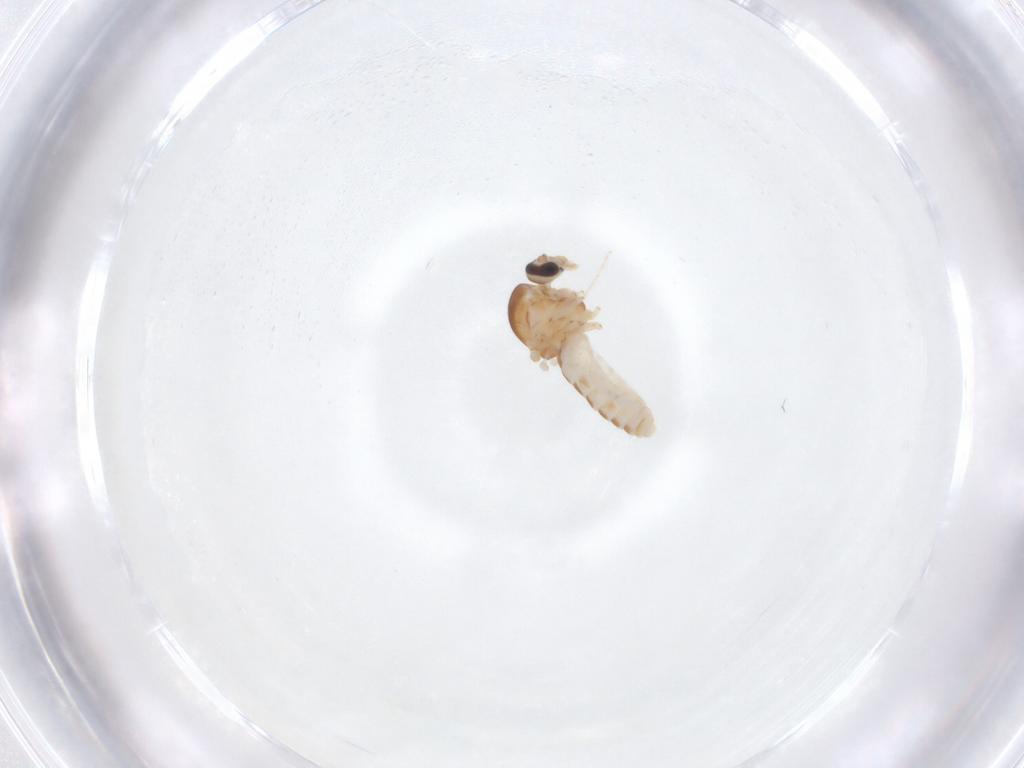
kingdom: Animalia
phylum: Arthropoda
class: Insecta
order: Diptera
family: Ceratopogonidae
